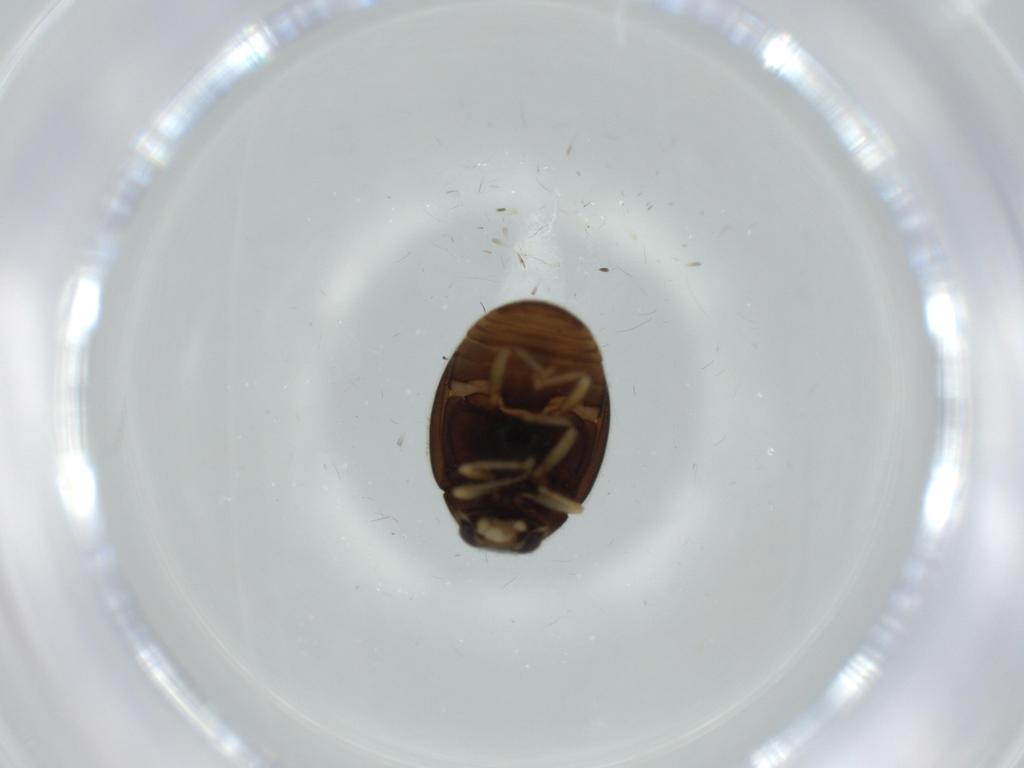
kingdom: Animalia
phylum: Arthropoda
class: Insecta
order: Coleoptera
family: Coccinellidae
